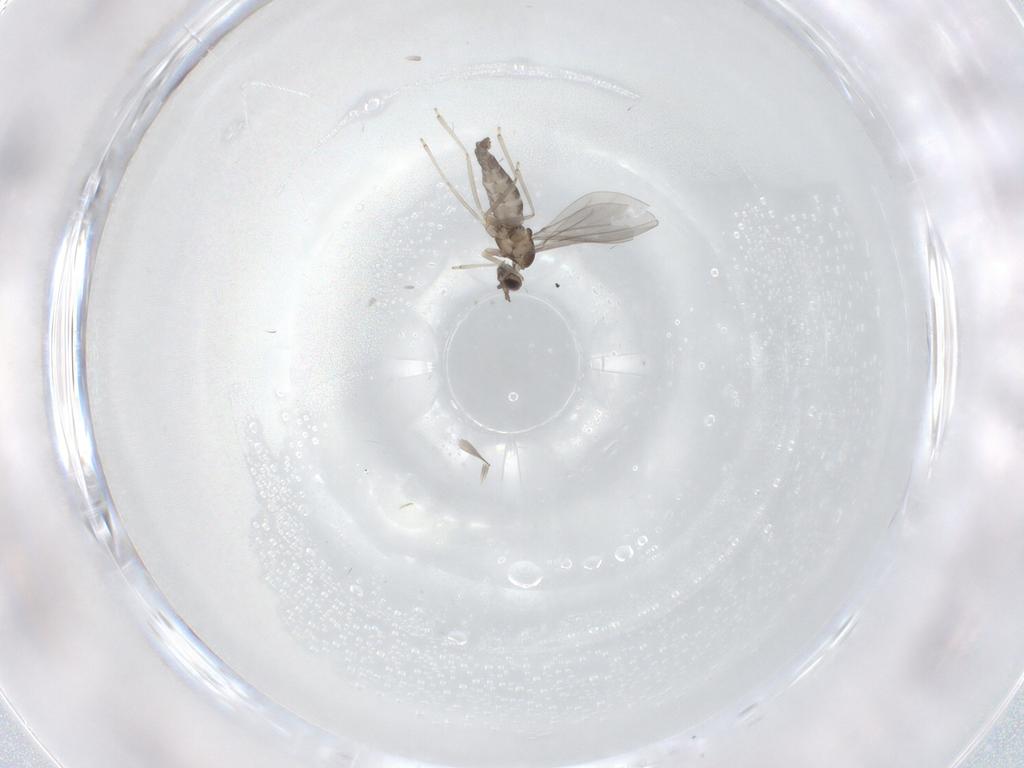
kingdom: Animalia
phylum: Arthropoda
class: Insecta
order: Diptera
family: Cecidomyiidae
